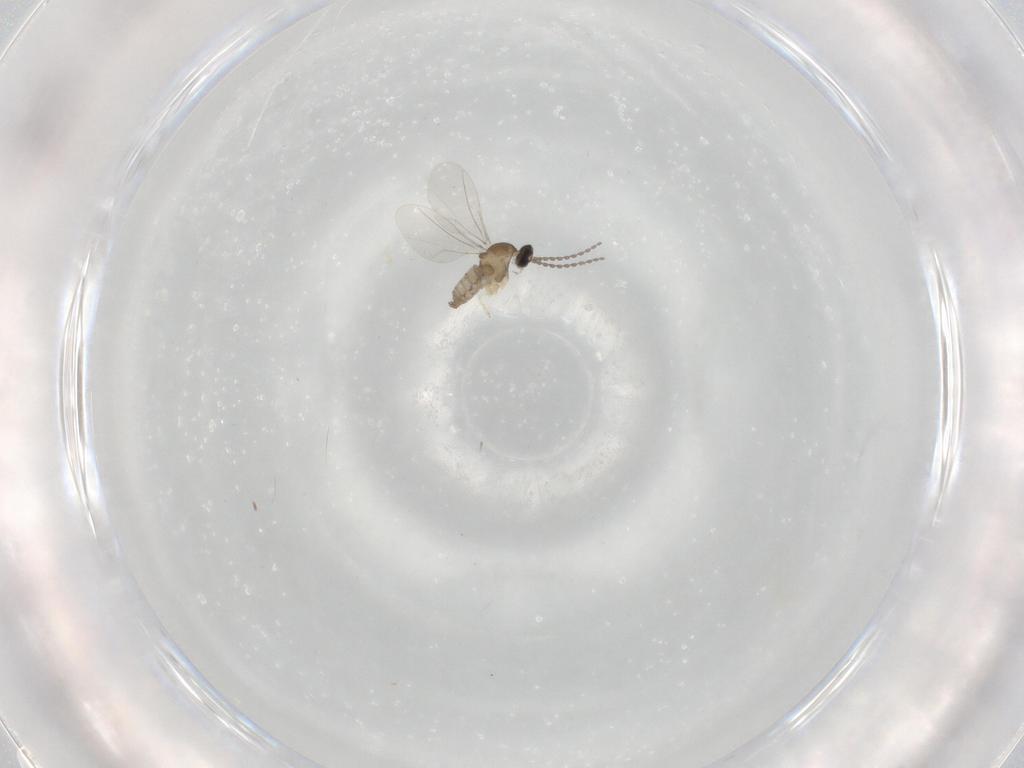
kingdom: Animalia
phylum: Arthropoda
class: Insecta
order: Diptera
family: Cecidomyiidae
